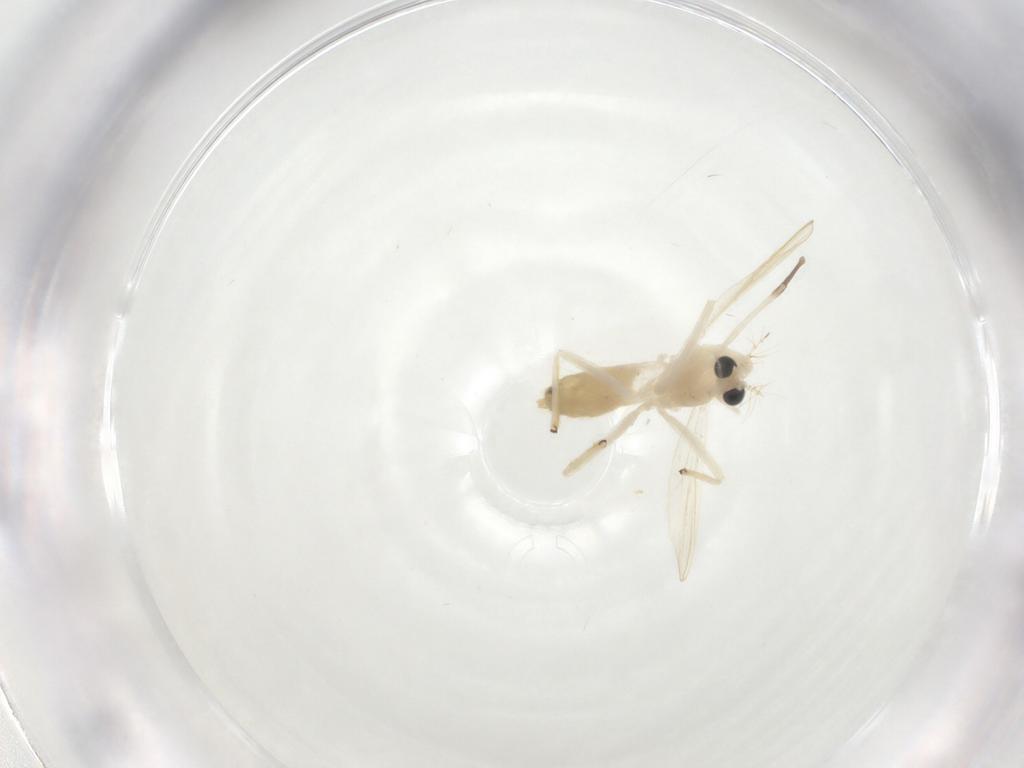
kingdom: Animalia
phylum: Arthropoda
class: Insecta
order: Diptera
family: Chironomidae
